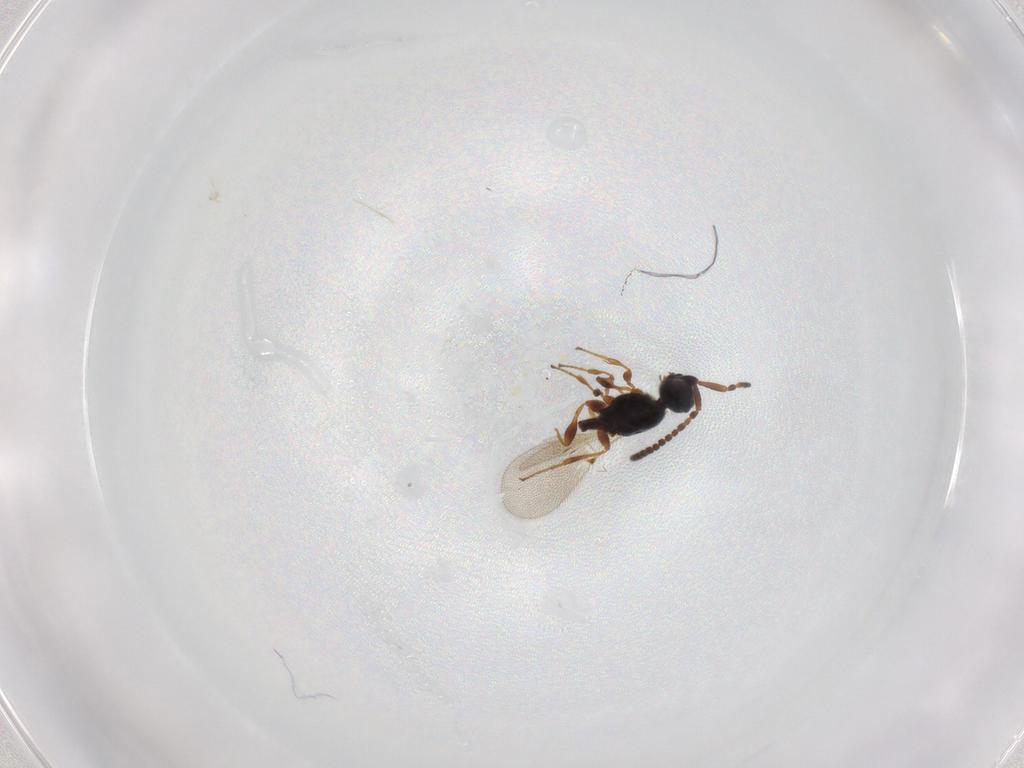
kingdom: Animalia
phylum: Arthropoda
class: Insecta
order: Hymenoptera
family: Diapriidae
